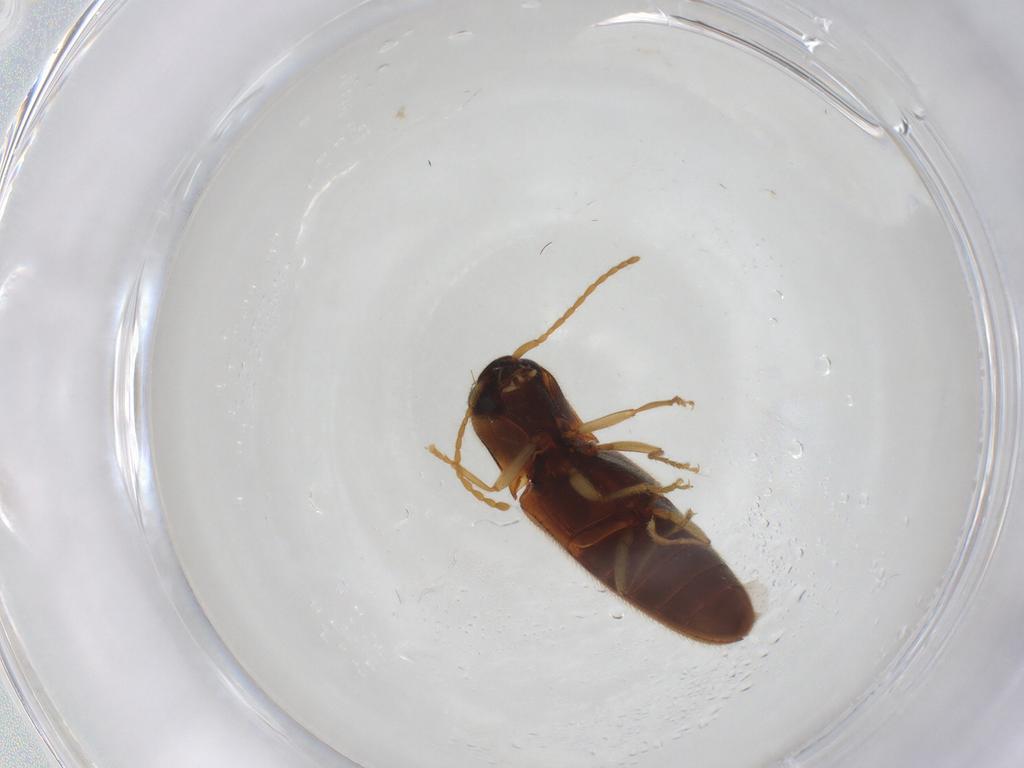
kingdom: Animalia
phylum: Arthropoda
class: Insecta
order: Coleoptera
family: Elateridae
